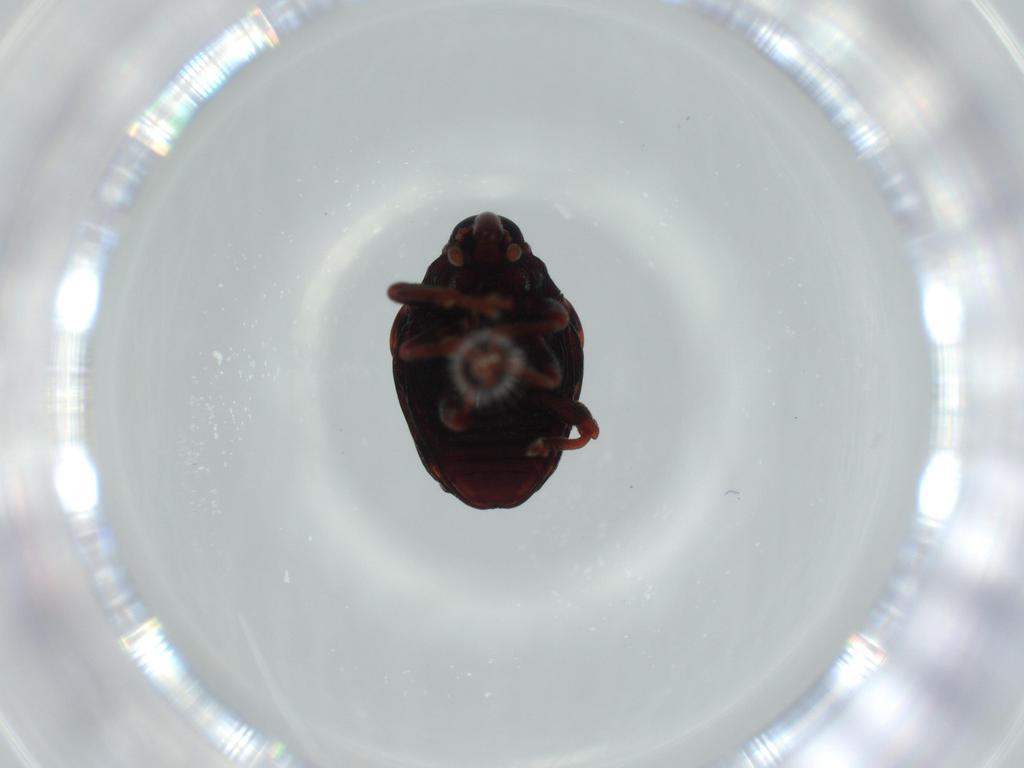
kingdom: Animalia
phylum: Arthropoda
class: Insecta
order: Coleoptera
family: Curculionidae
